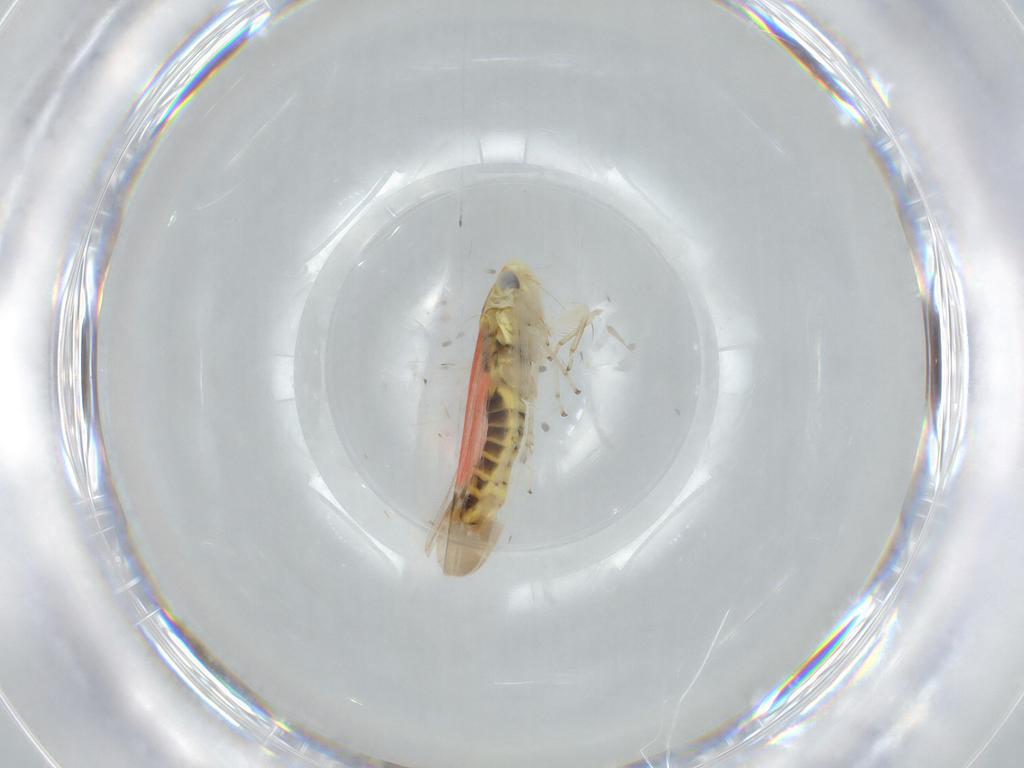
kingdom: Animalia
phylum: Arthropoda
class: Insecta
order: Hemiptera
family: Cicadellidae
